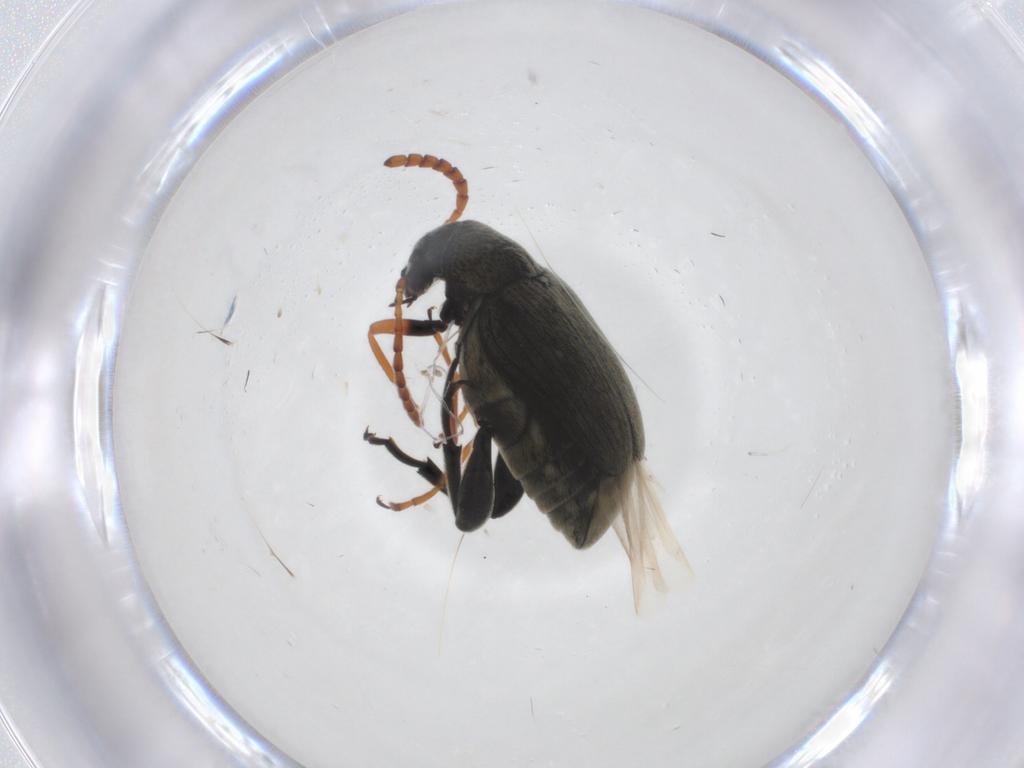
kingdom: Animalia
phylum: Arthropoda
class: Insecta
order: Coleoptera
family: Chrysomelidae
